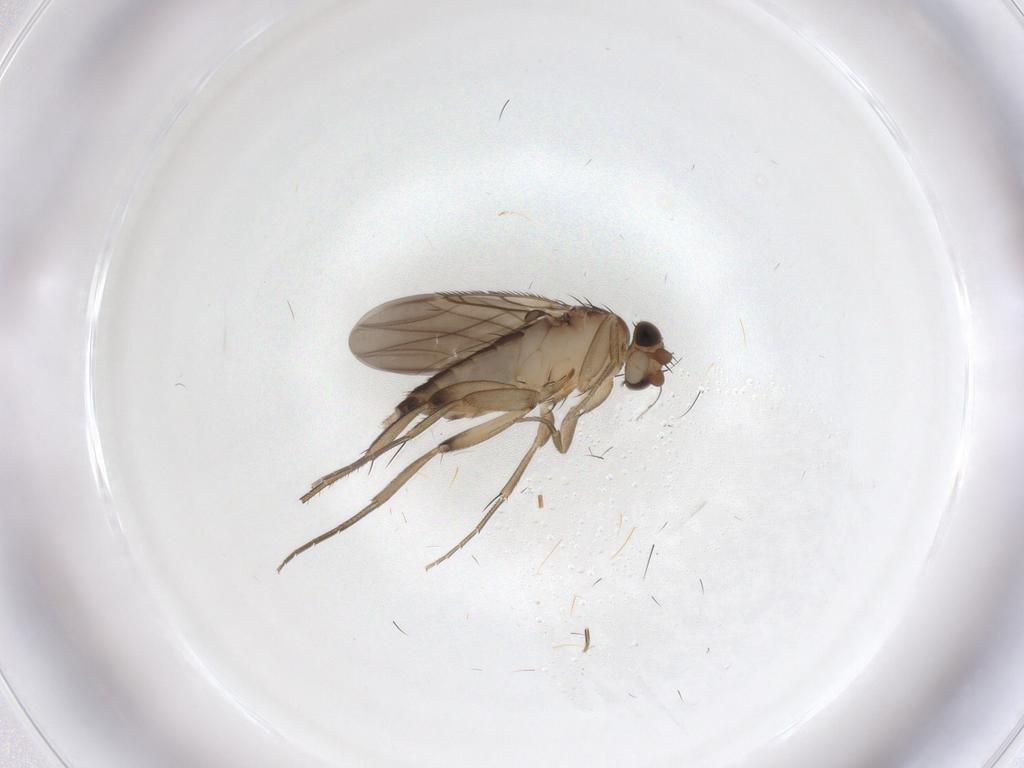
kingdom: Animalia
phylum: Arthropoda
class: Insecta
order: Diptera
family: Phoridae
